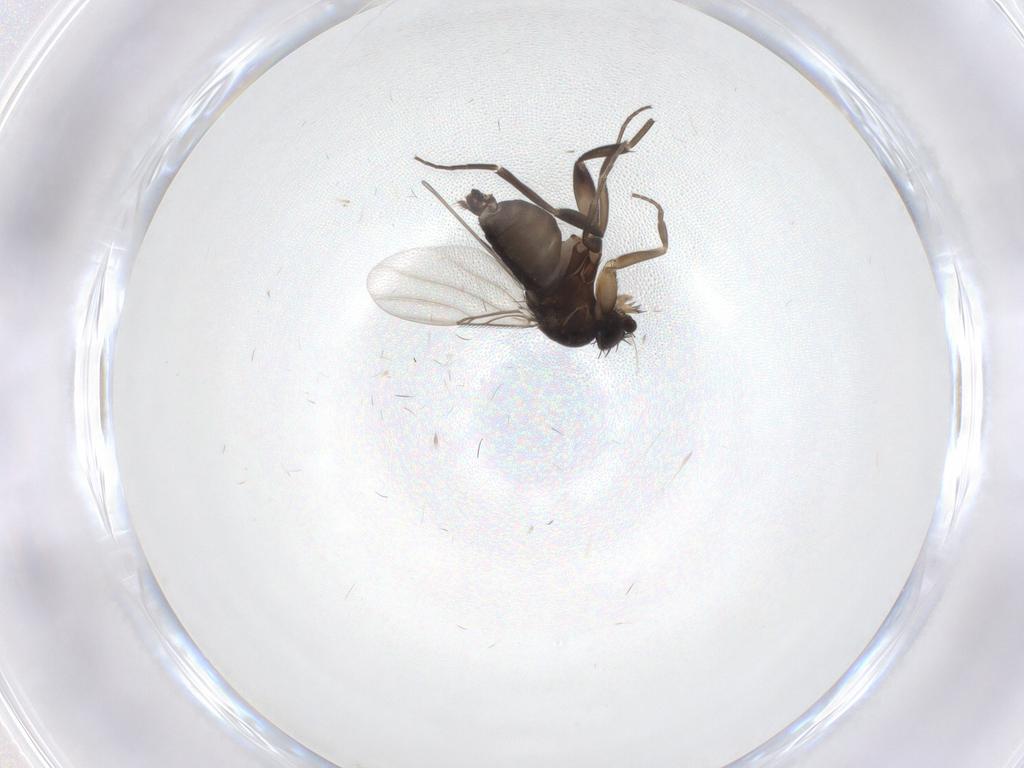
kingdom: Animalia
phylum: Arthropoda
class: Insecta
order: Diptera
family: Phoridae
